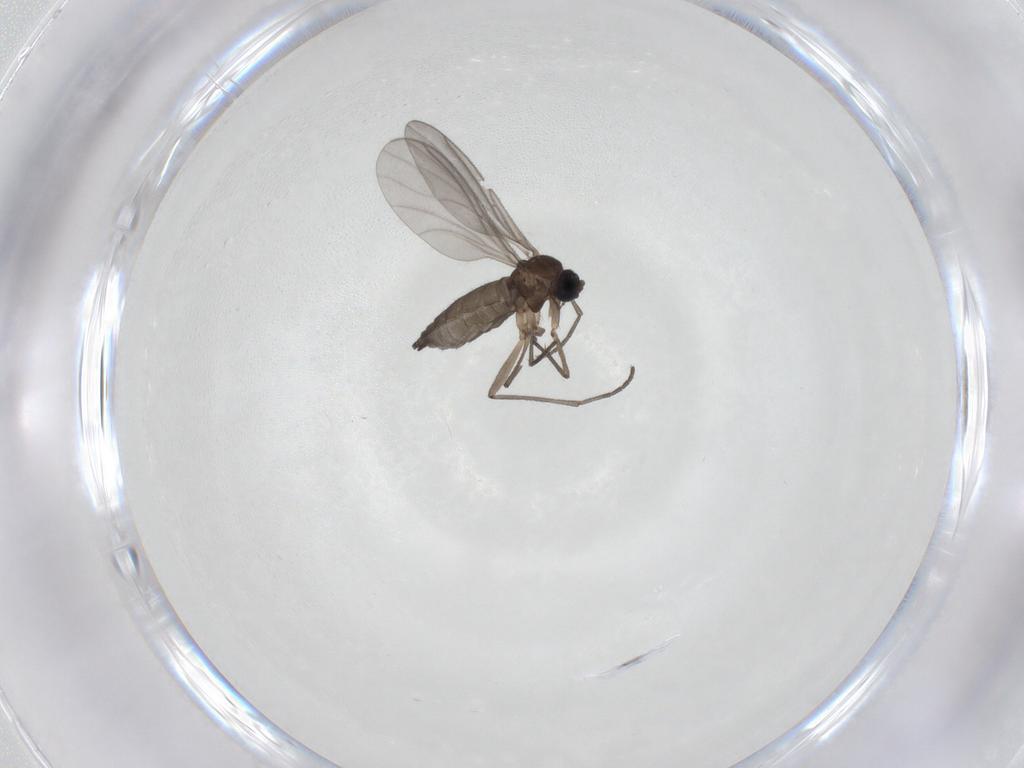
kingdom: Animalia
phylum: Arthropoda
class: Insecta
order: Diptera
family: Phoridae
